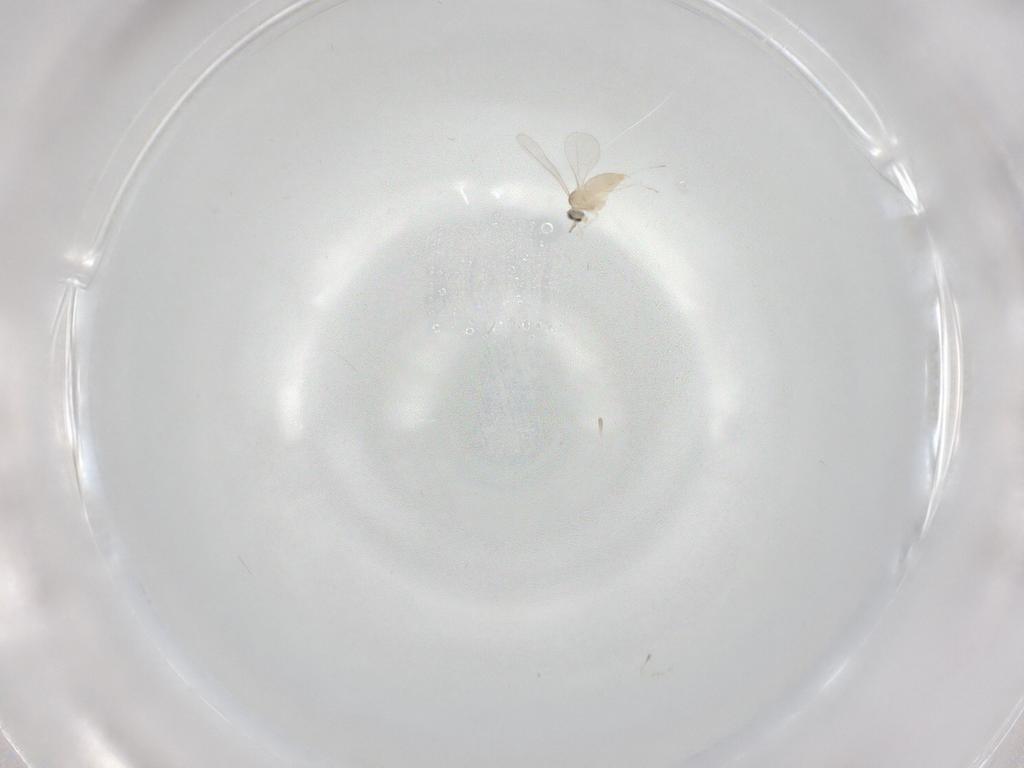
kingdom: Animalia
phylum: Arthropoda
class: Insecta
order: Diptera
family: Cecidomyiidae
